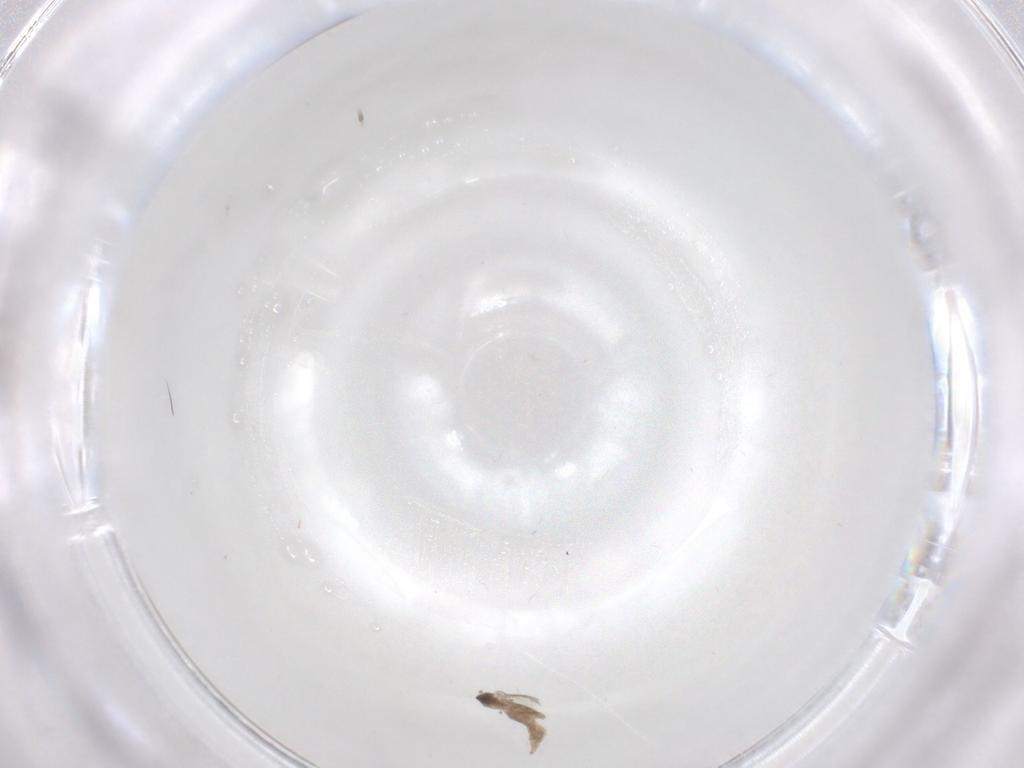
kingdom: Animalia
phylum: Arthropoda
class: Insecta
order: Diptera
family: Cecidomyiidae
